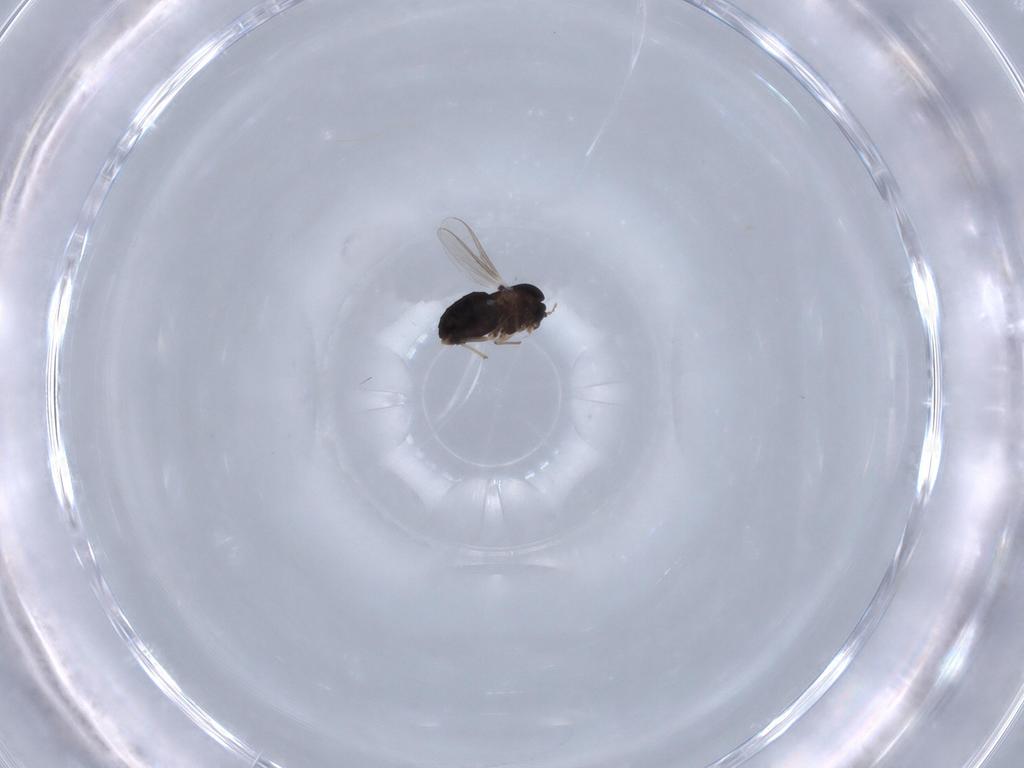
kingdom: Animalia
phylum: Arthropoda
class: Insecta
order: Diptera
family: Chironomidae
